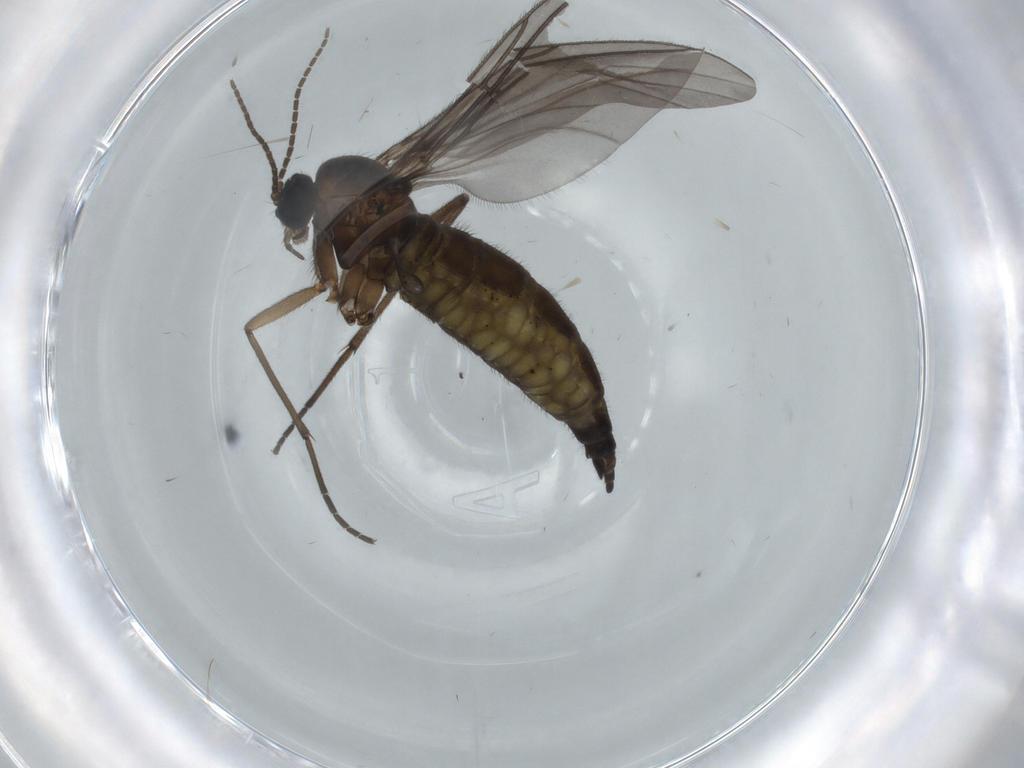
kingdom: Animalia
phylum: Arthropoda
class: Insecta
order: Diptera
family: Sciaridae
